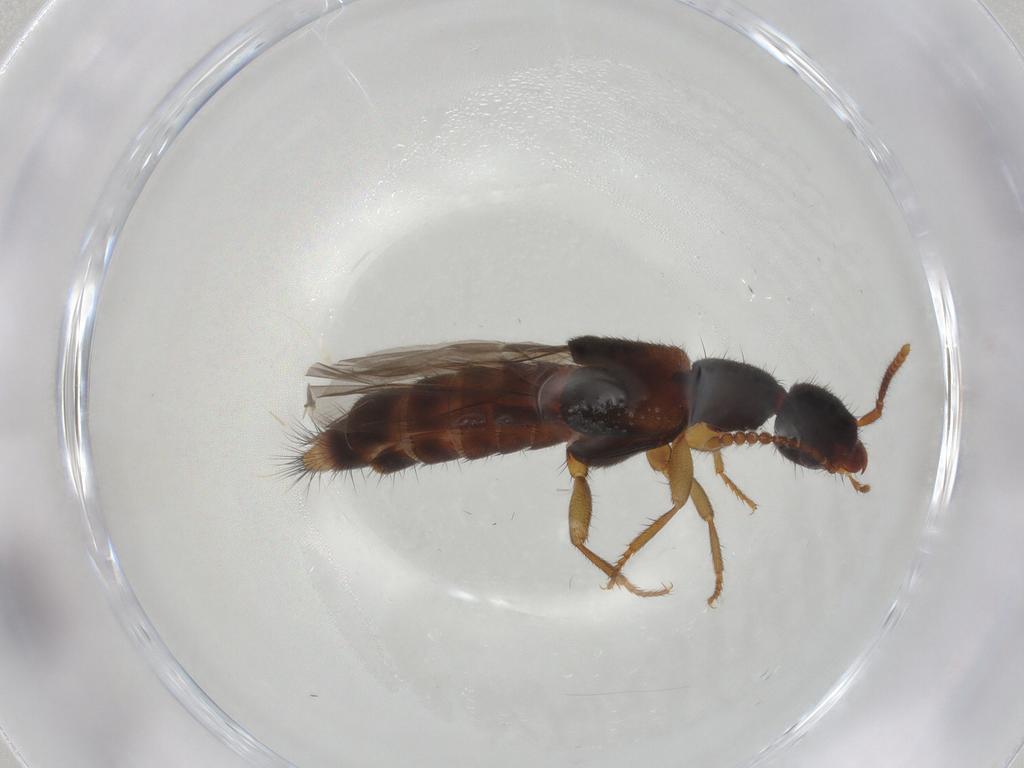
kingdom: Animalia
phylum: Arthropoda
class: Insecta
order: Coleoptera
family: Staphylinidae
